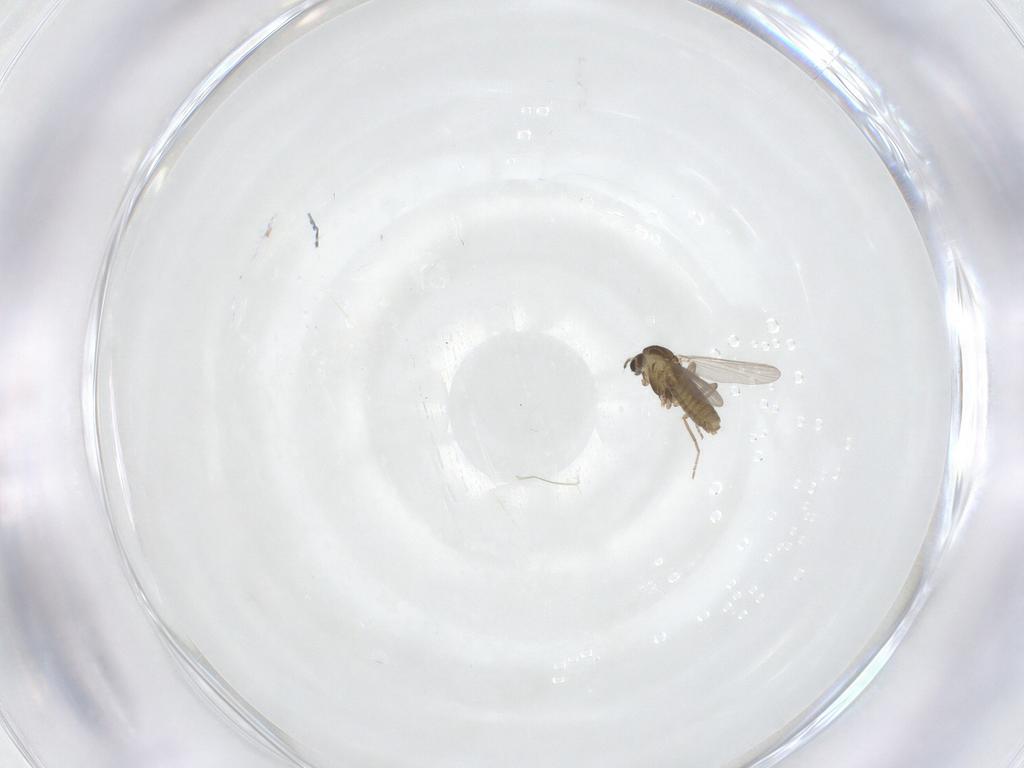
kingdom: Animalia
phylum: Arthropoda
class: Insecta
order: Diptera
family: Chironomidae
